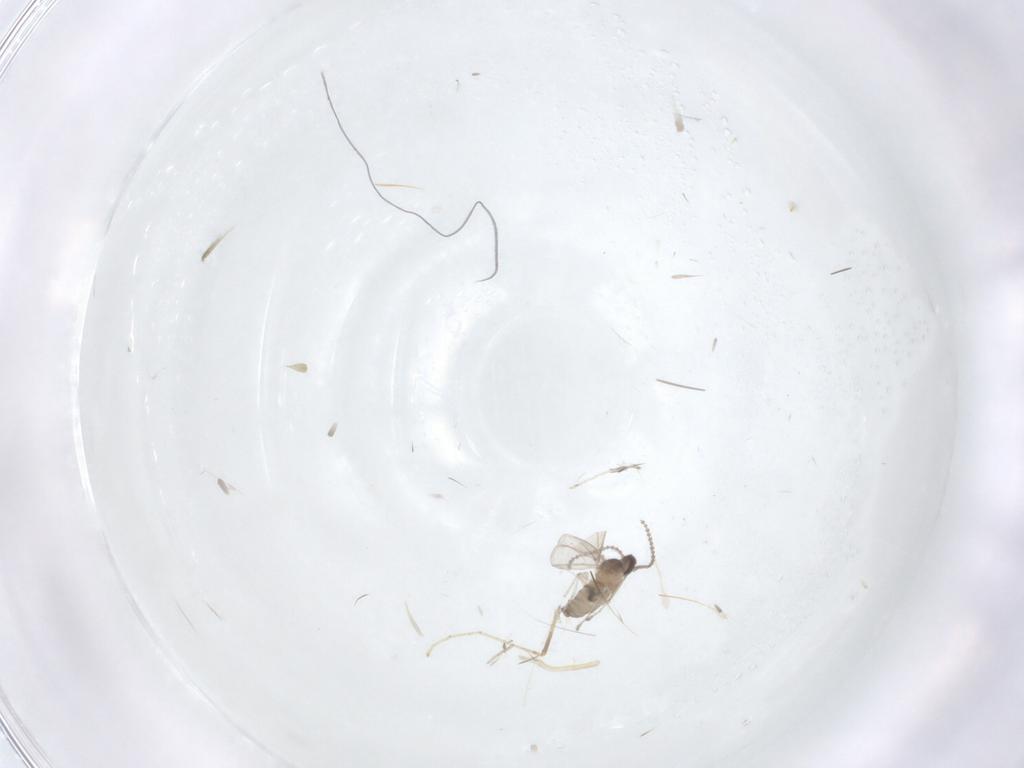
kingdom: Animalia
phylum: Arthropoda
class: Insecta
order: Diptera
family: Cecidomyiidae
